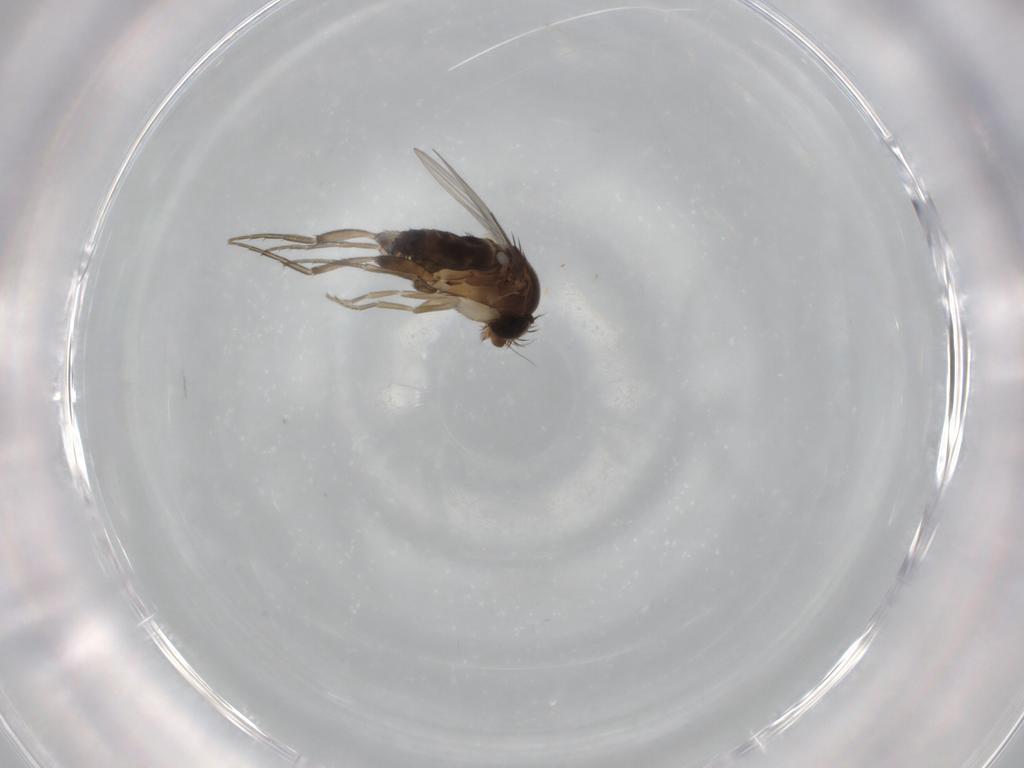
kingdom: Animalia
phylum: Arthropoda
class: Insecta
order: Diptera
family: Phoridae
